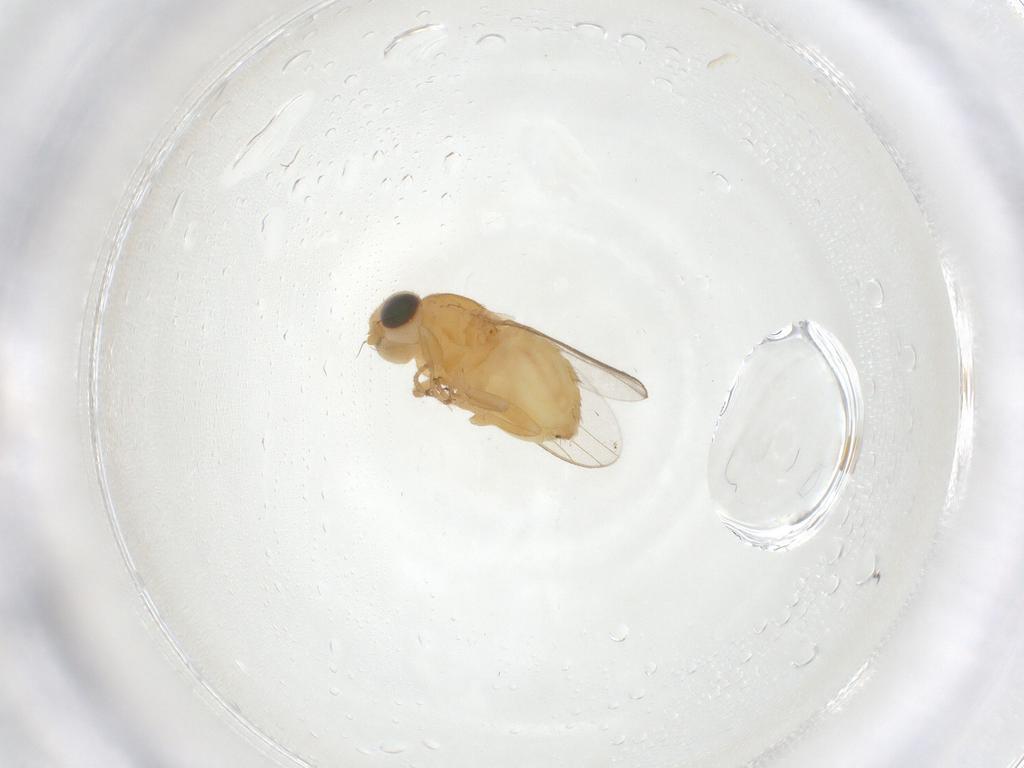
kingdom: Animalia
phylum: Arthropoda
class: Insecta
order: Diptera
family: Chloropidae
